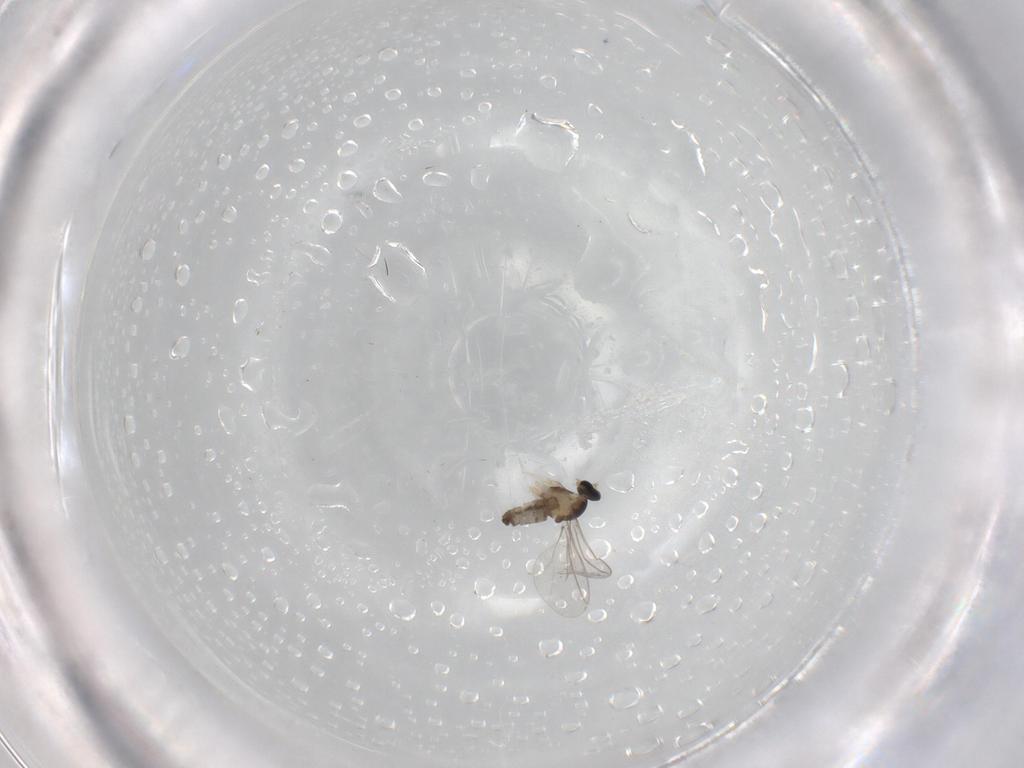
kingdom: Animalia
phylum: Arthropoda
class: Insecta
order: Diptera
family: Cecidomyiidae
